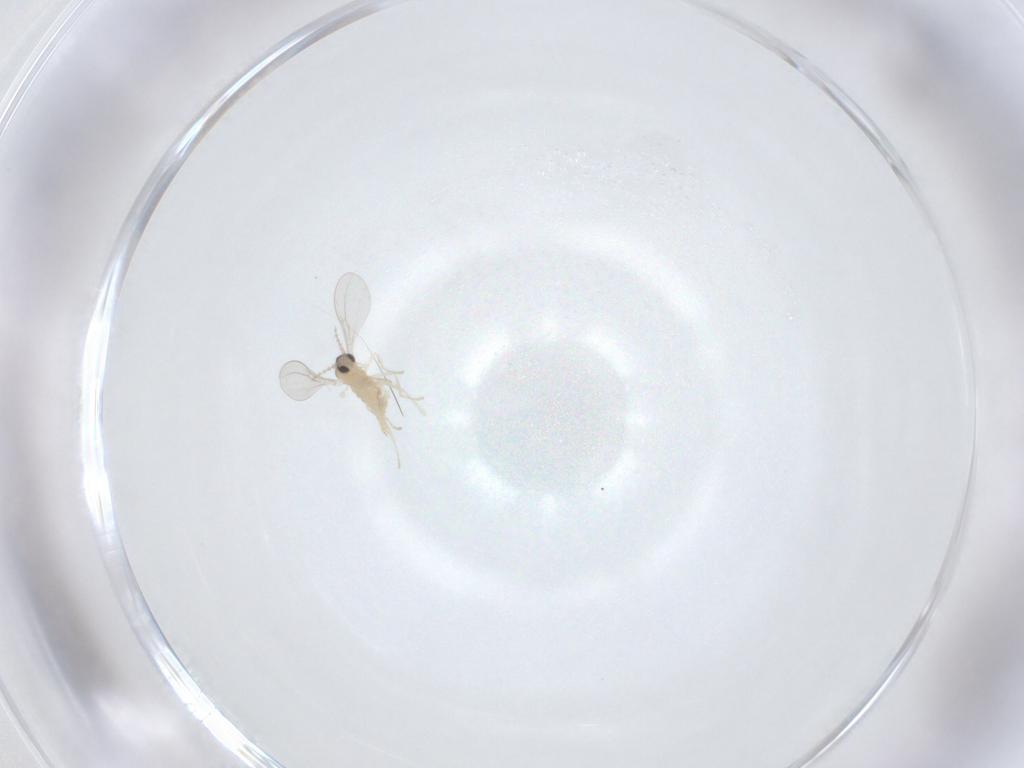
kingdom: Animalia
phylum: Arthropoda
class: Insecta
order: Diptera
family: Cecidomyiidae
